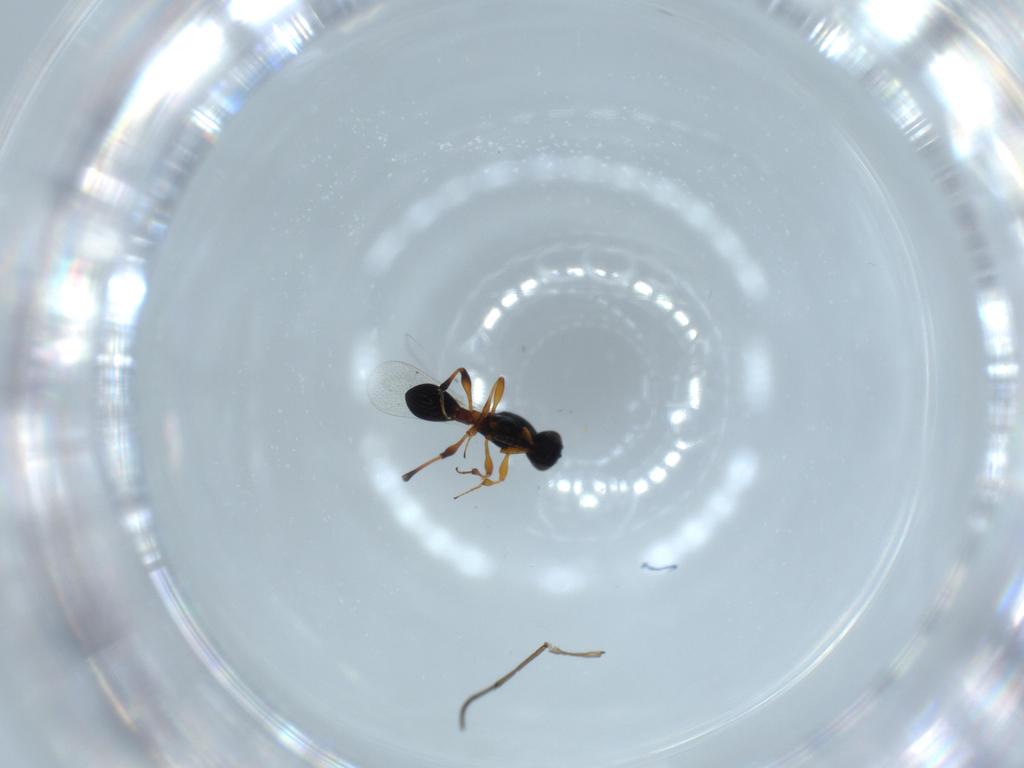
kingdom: Animalia
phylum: Arthropoda
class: Insecta
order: Hymenoptera
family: Platygastridae
